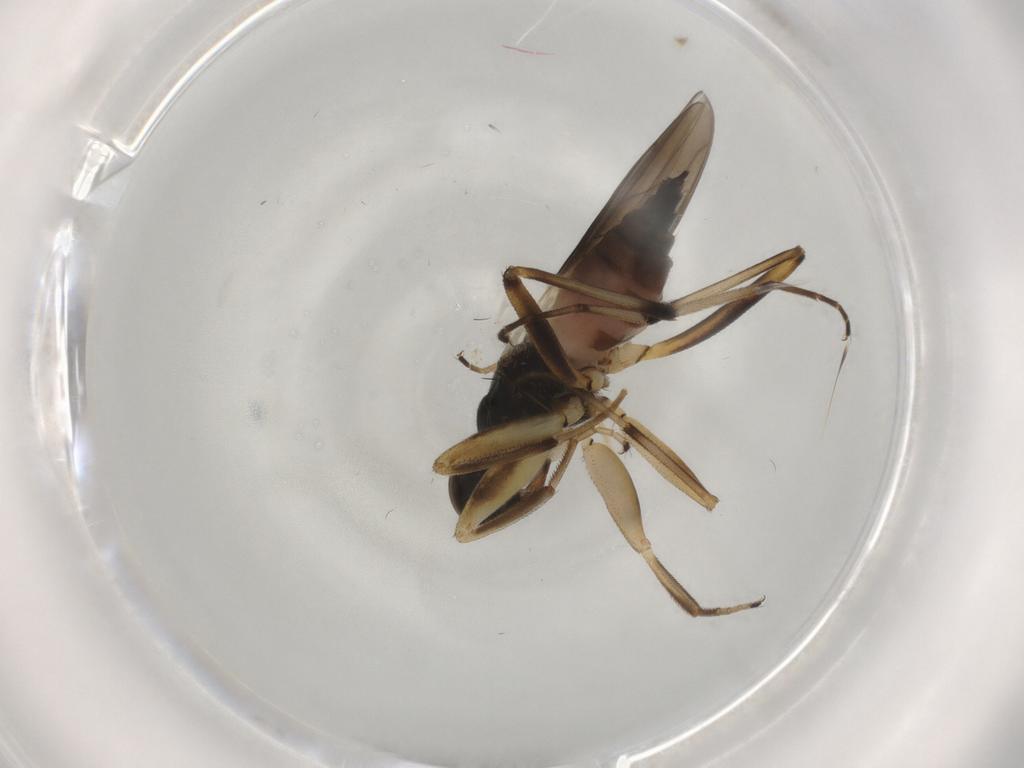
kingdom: Animalia
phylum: Arthropoda
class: Insecta
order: Diptera
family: Hybotidae
